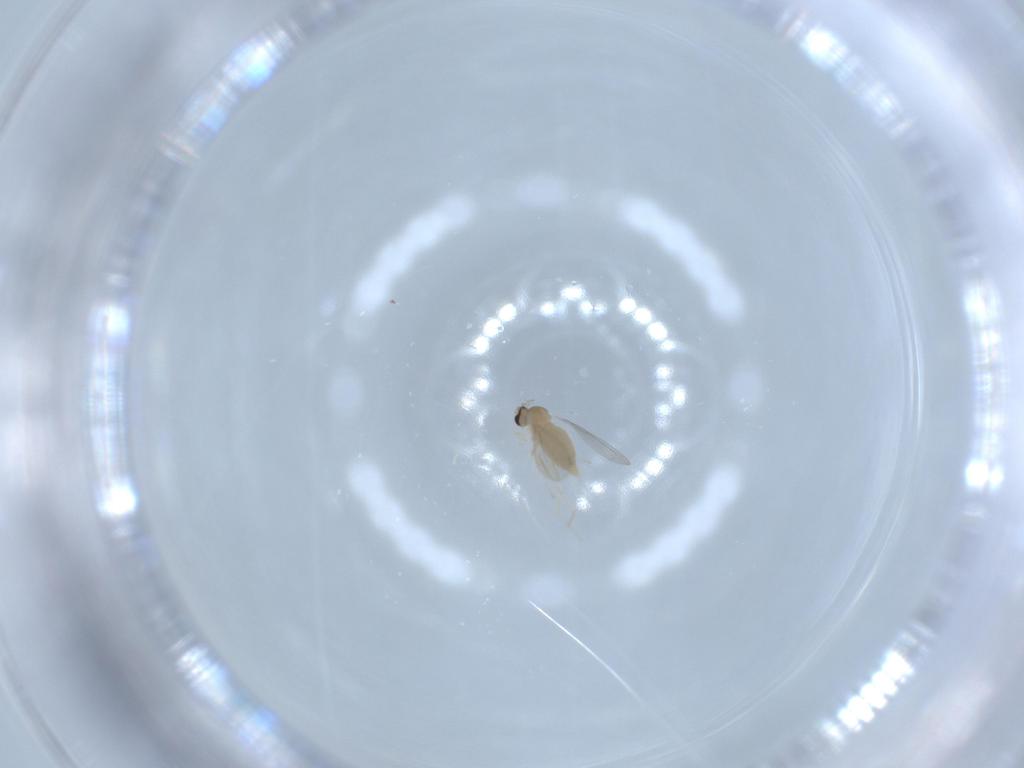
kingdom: Animalia
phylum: Arthropoda
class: Insecta
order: Diptera
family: Cecidomyiidae
